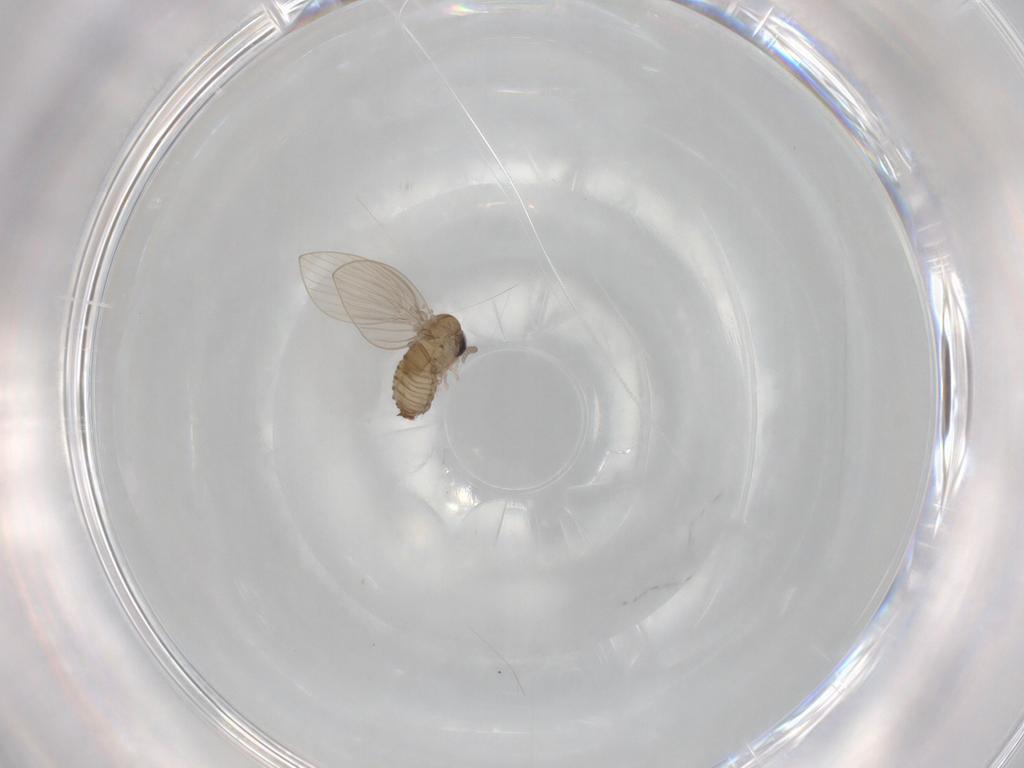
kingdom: Animalia
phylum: Arthropoda
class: Insecta
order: Diptera
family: Psychodidae
